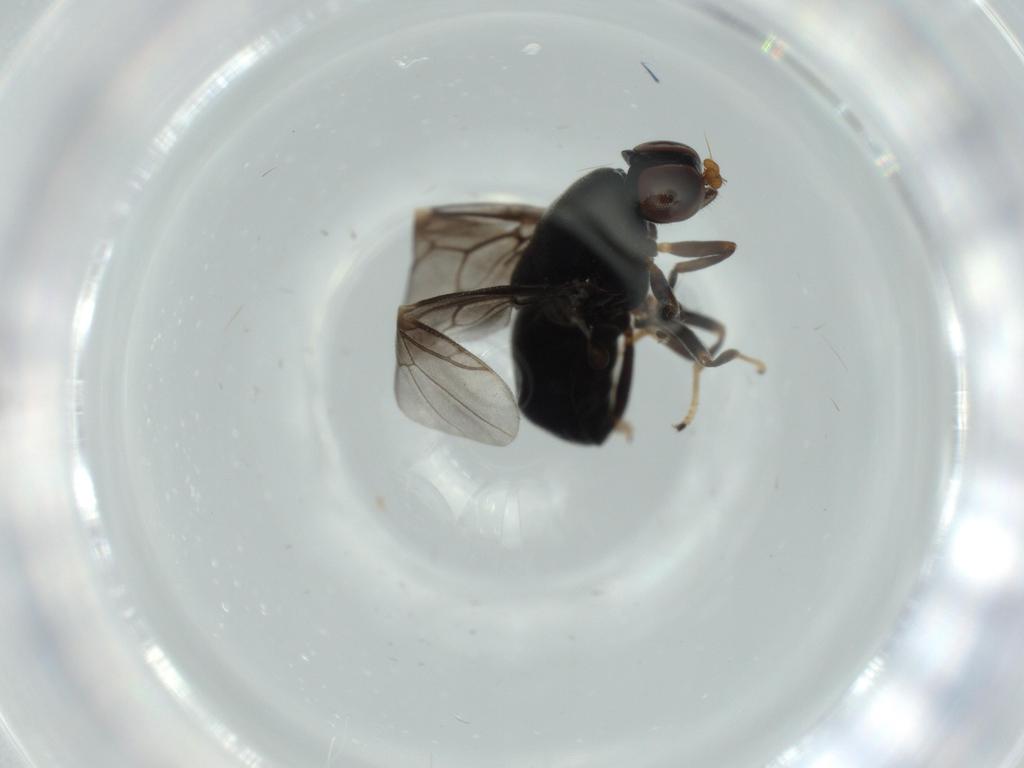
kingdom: Animalia
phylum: Arthropoda
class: Insecta
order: Diptera
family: Stratiomyidae
